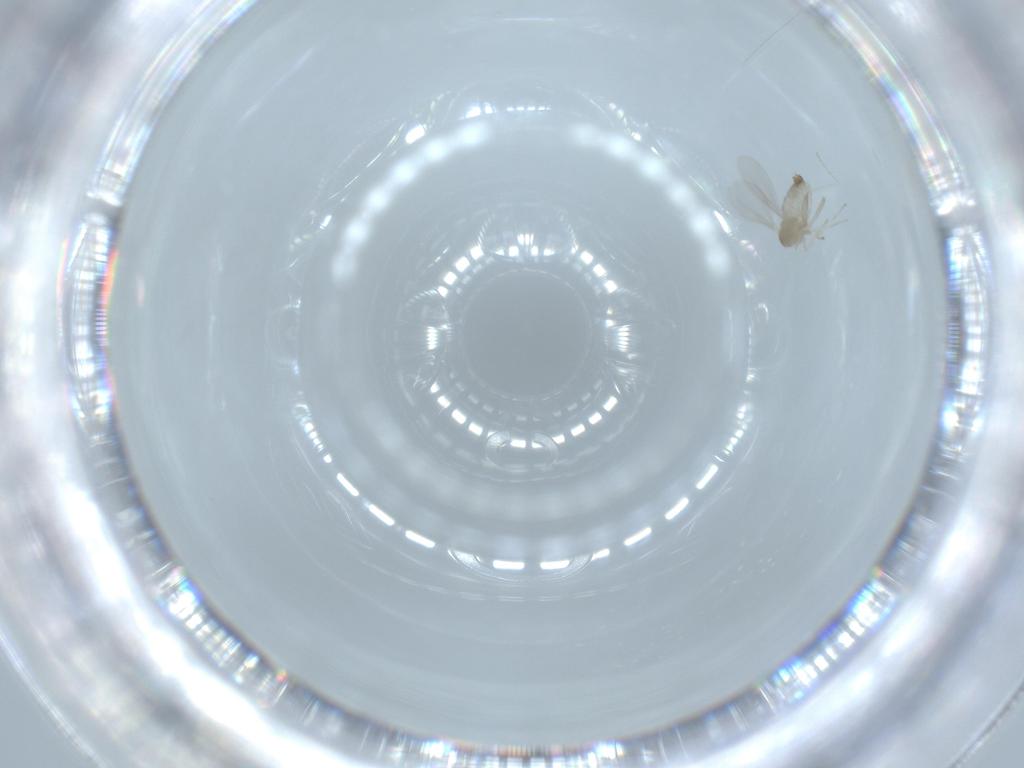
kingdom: Animalia
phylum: Arthropoda
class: Insecta
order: Diptera
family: Cecidomyiidae
